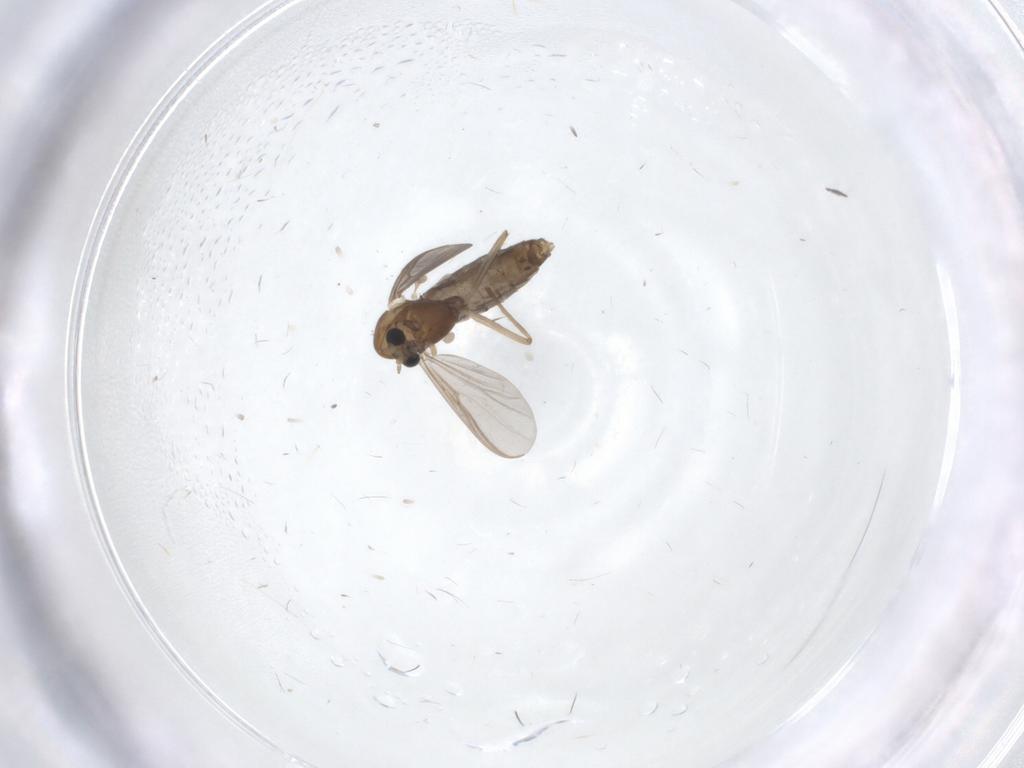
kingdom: Animalia
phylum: Arthropoda
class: Insecta
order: Diptera
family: Chironomidae
